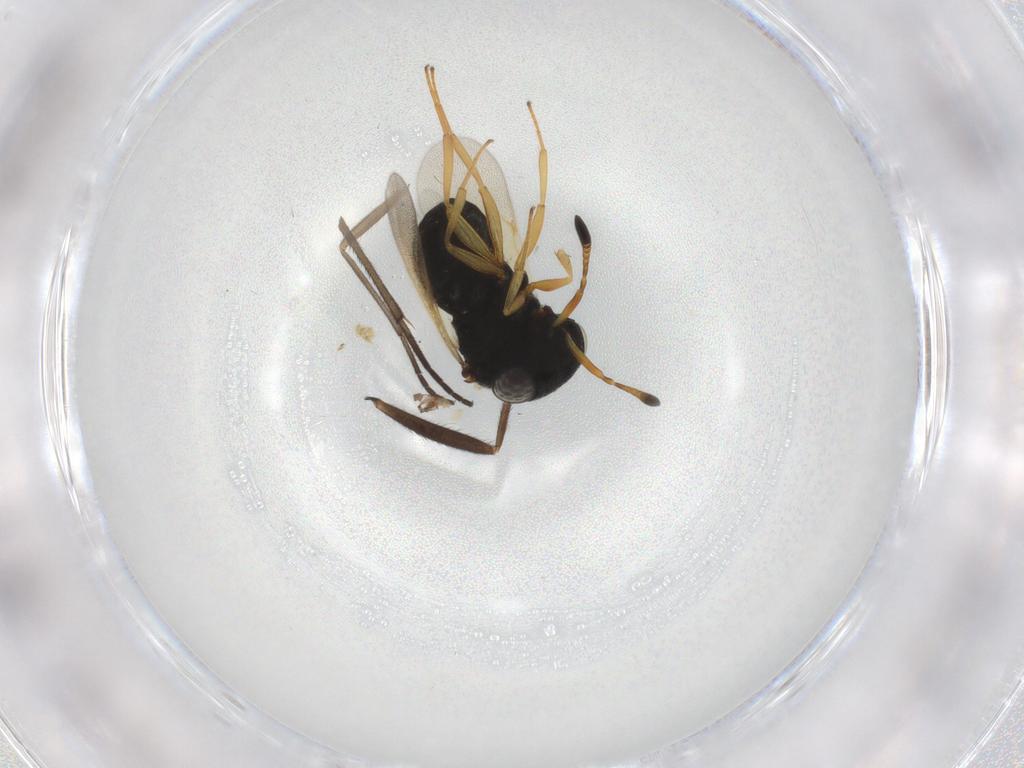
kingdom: Animalia
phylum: Arthropoda
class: Insecta
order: Hymenoptera
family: Scelionidae
